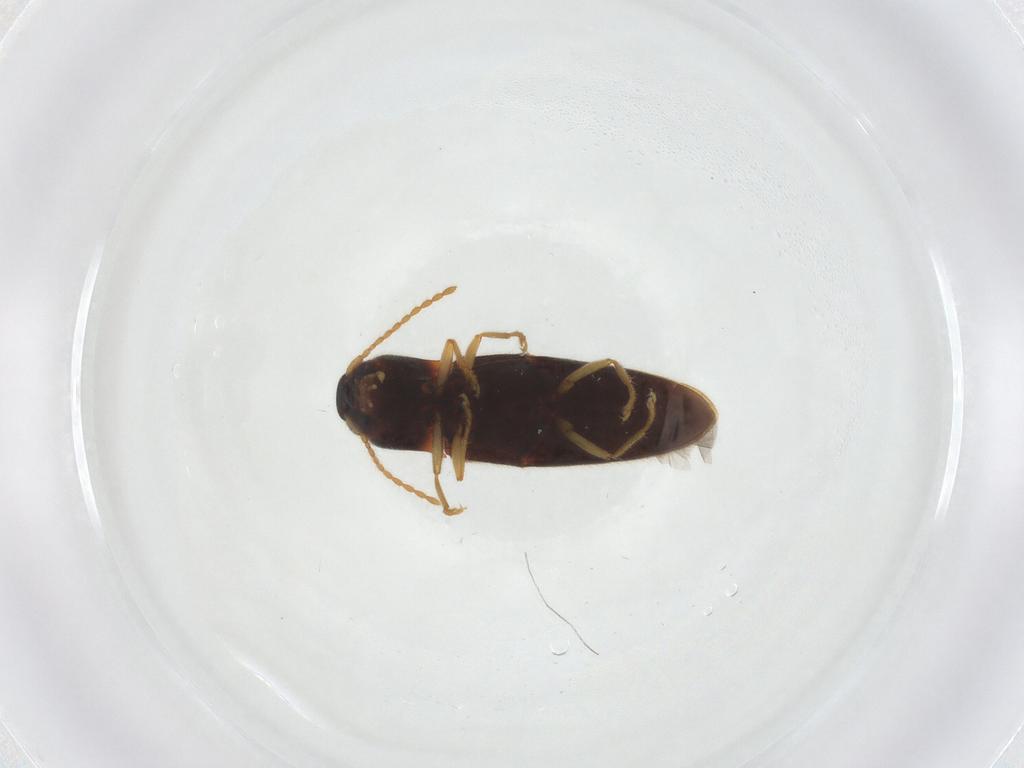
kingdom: Animalia
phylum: Arthropoda
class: Insecta
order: Coleoptera
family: Elateridae
